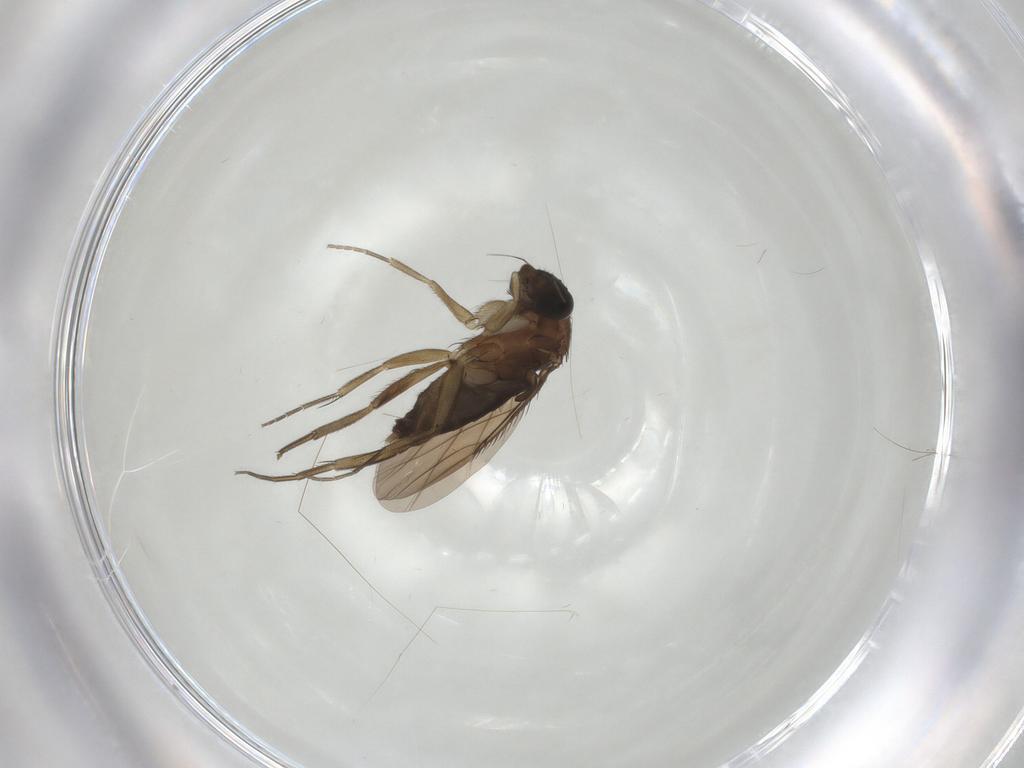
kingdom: Animalia
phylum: Arthropoda
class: Insecta
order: Diptera
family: Phoridae
